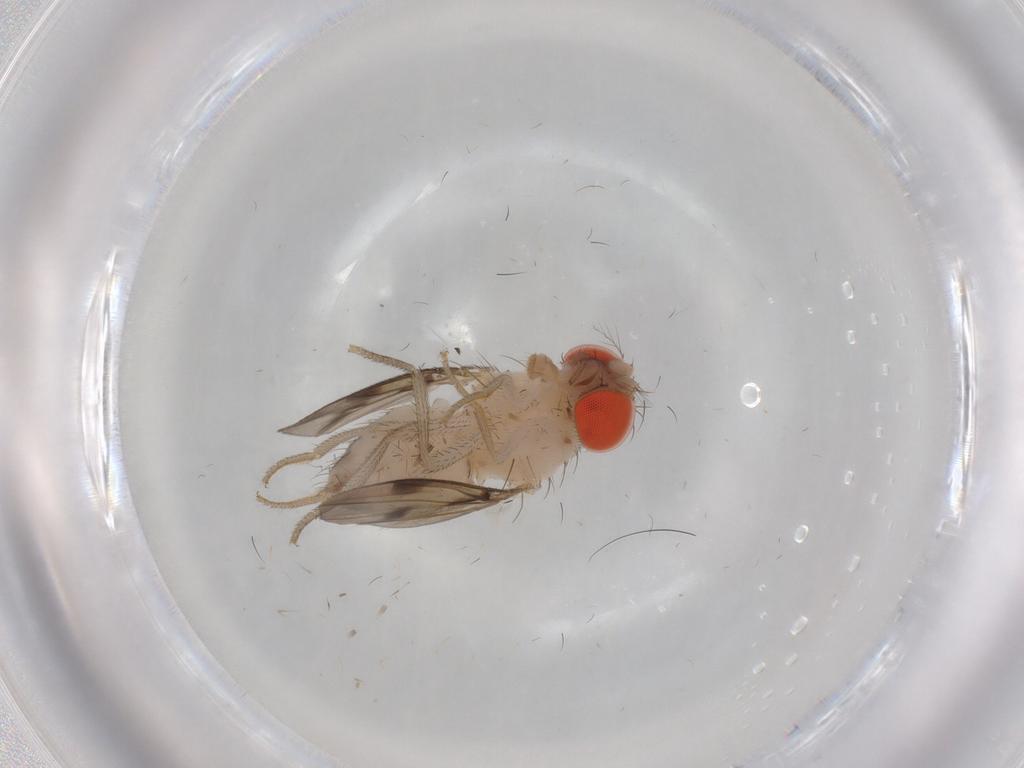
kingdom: Animalia
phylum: Arthropoda
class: Insecta
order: Diptera
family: Drosophilidae
